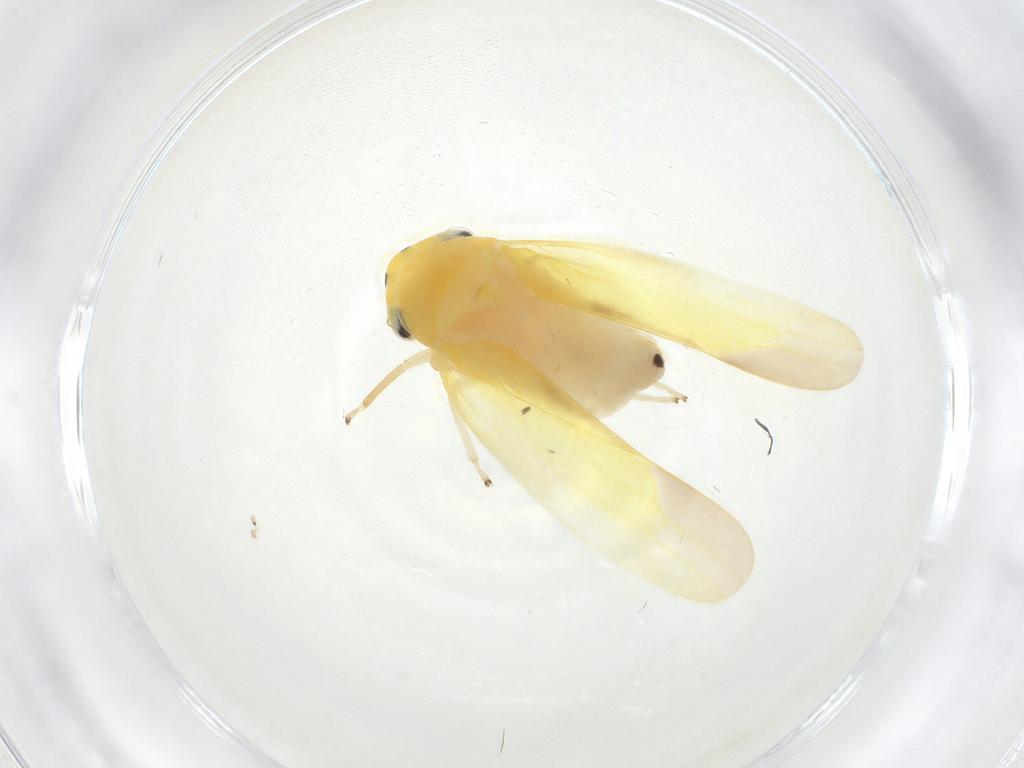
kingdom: Animalia
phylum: Arthropoda
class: Insecta
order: Hemiptera
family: Cicadellidae
